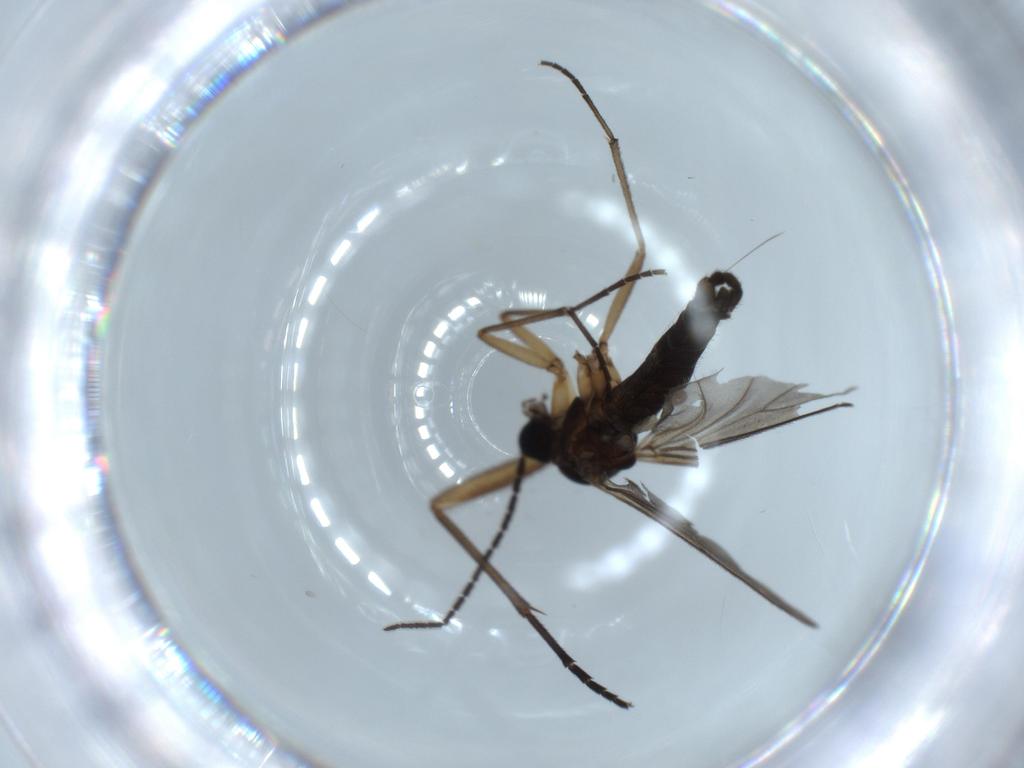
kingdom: Animalia
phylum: Arthropoda
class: Insecta
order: Diptera
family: Sciaridae
